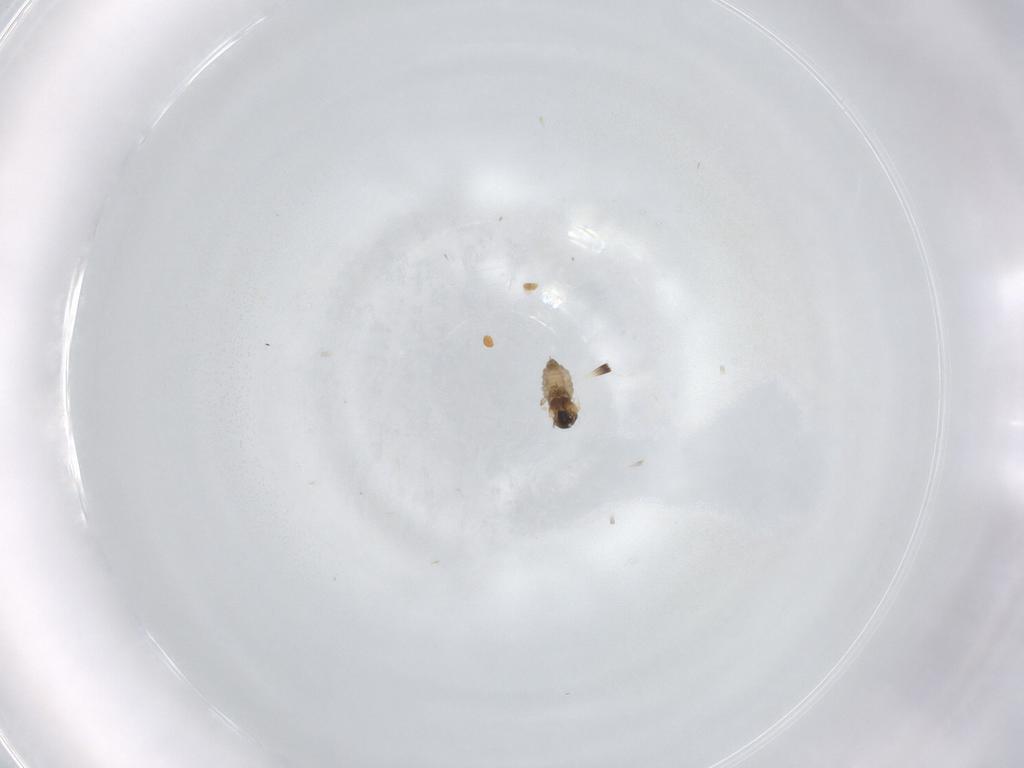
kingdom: Animalia
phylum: Arthropoda
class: Insecta
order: Diptera
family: Cecidomyiidae
